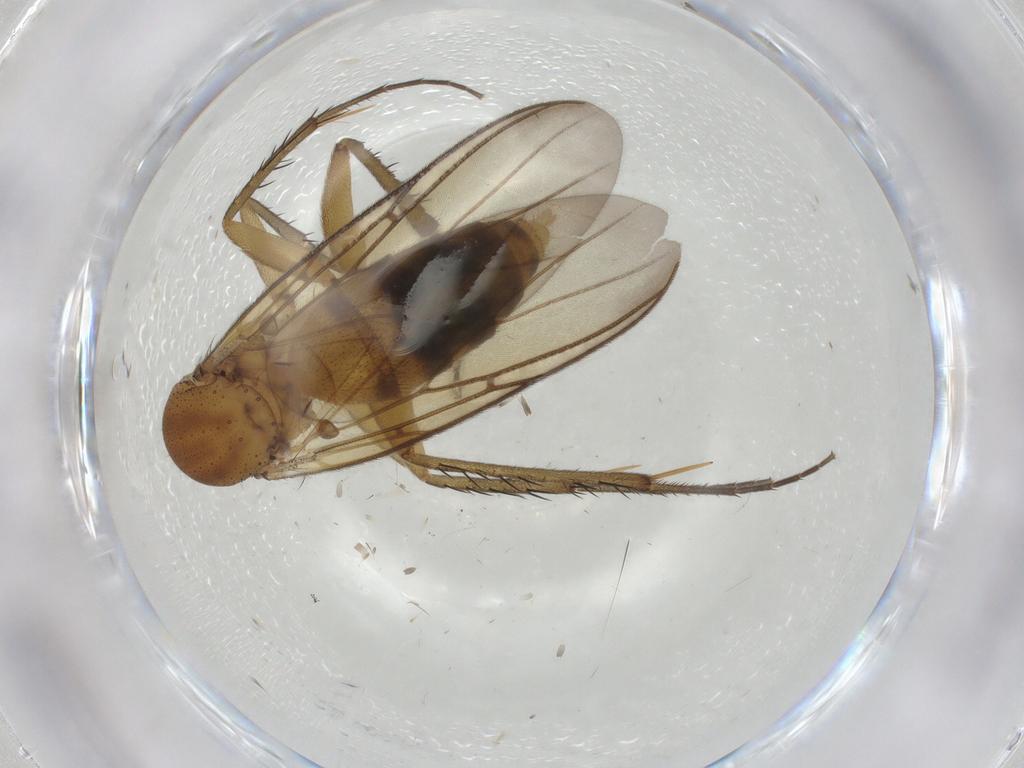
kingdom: Animalia
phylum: Arthropoda
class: Insecta
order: Diptera
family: Mycetophilidae
